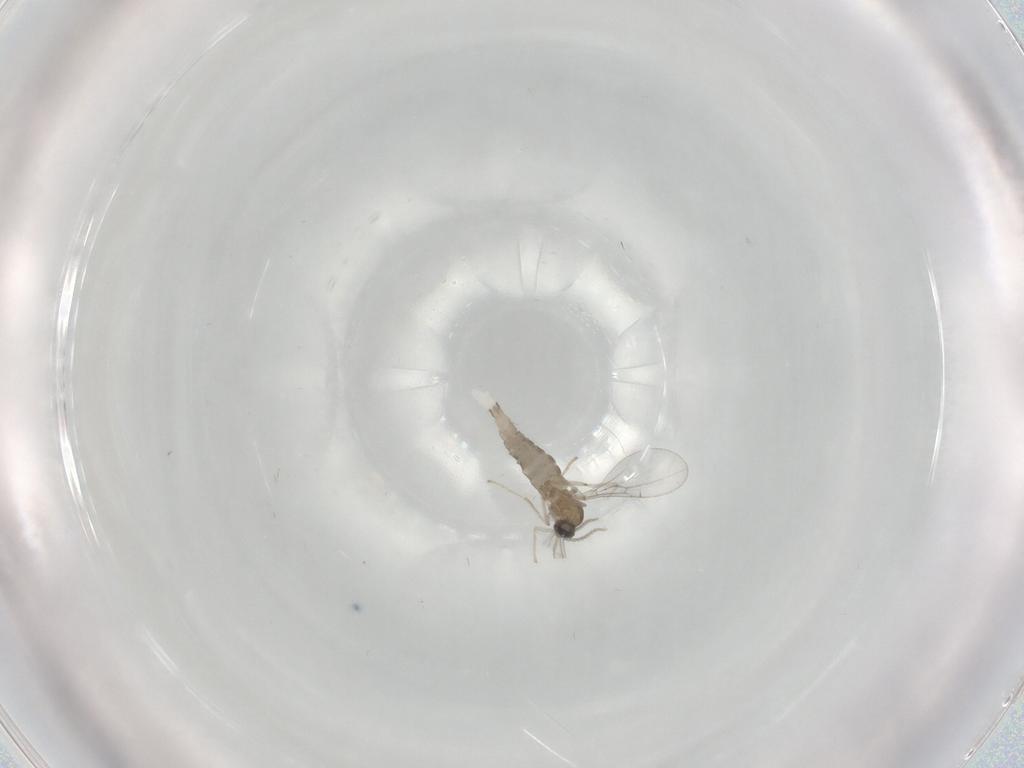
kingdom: Animalia
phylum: Arthropoda
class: Insecta
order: Diptera
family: Cecidomyiidae
